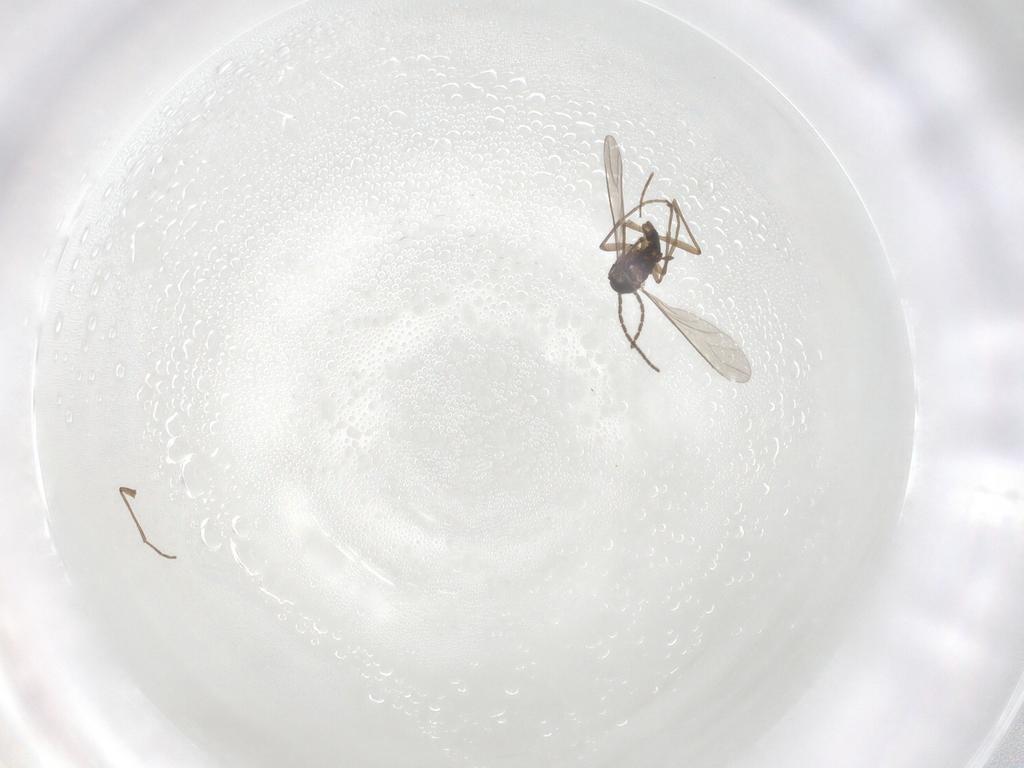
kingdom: Animalia
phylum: Arthropoda
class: Insecta
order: Diptera
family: Sciaridae
